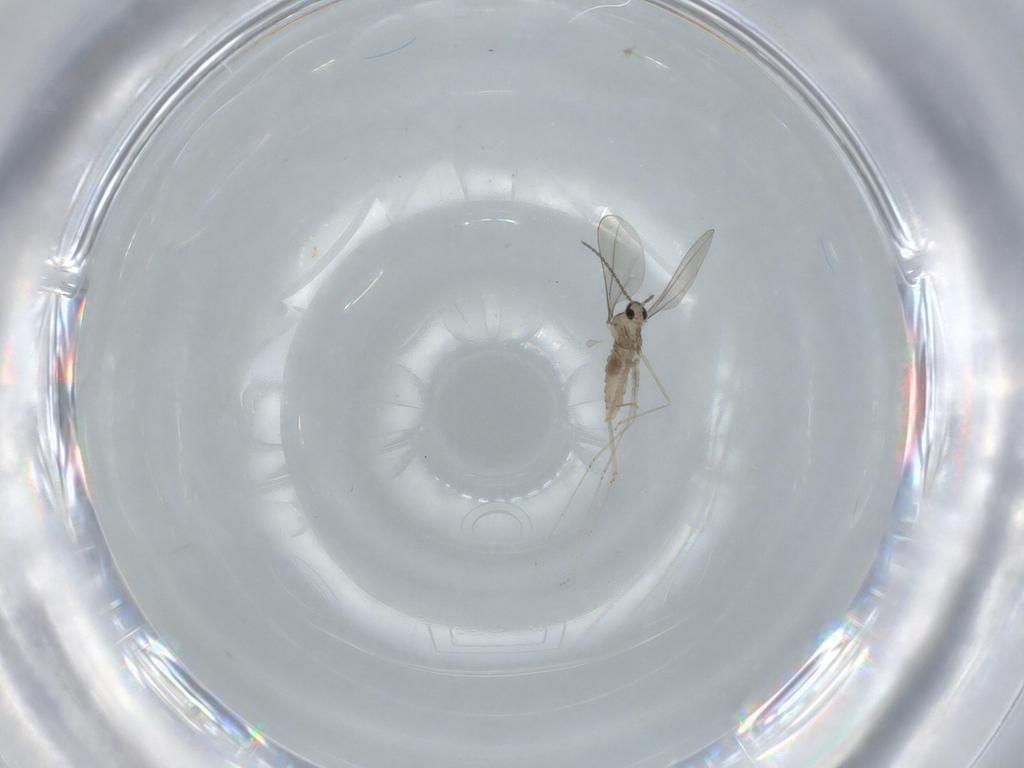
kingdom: Animalia
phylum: Arthropoda
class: Insecta
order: Diptera
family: Cecidomyiidae
